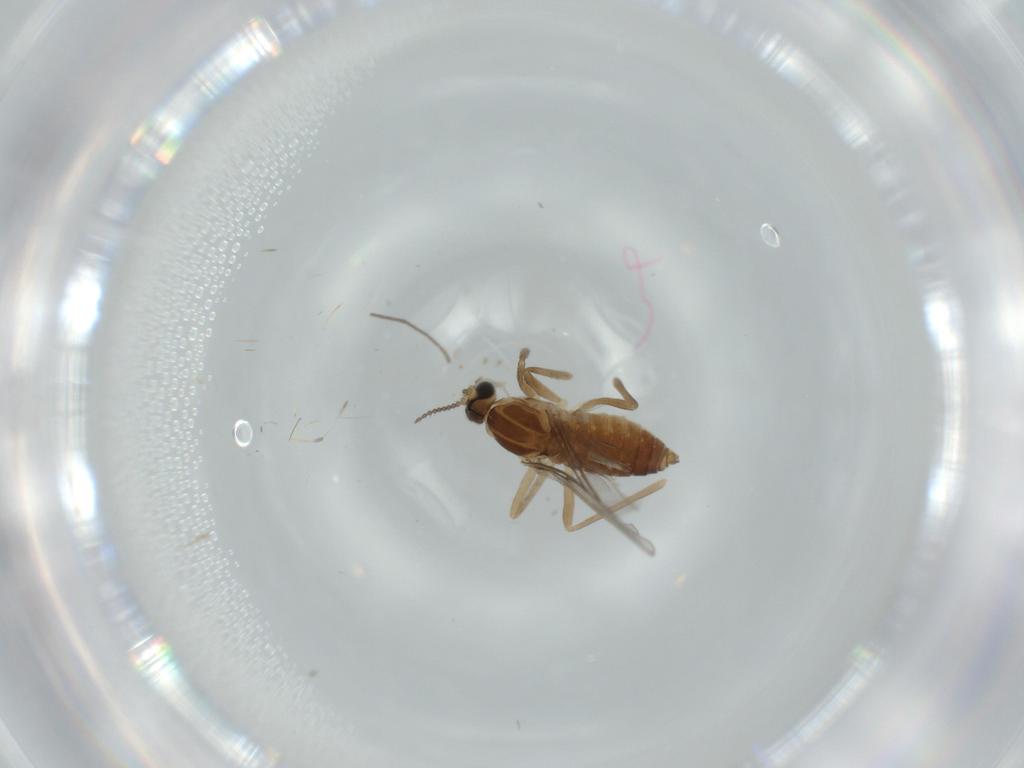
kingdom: Animalia
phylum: Arthropoda
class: Insecta
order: Diptera
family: Cecidomyiidae
